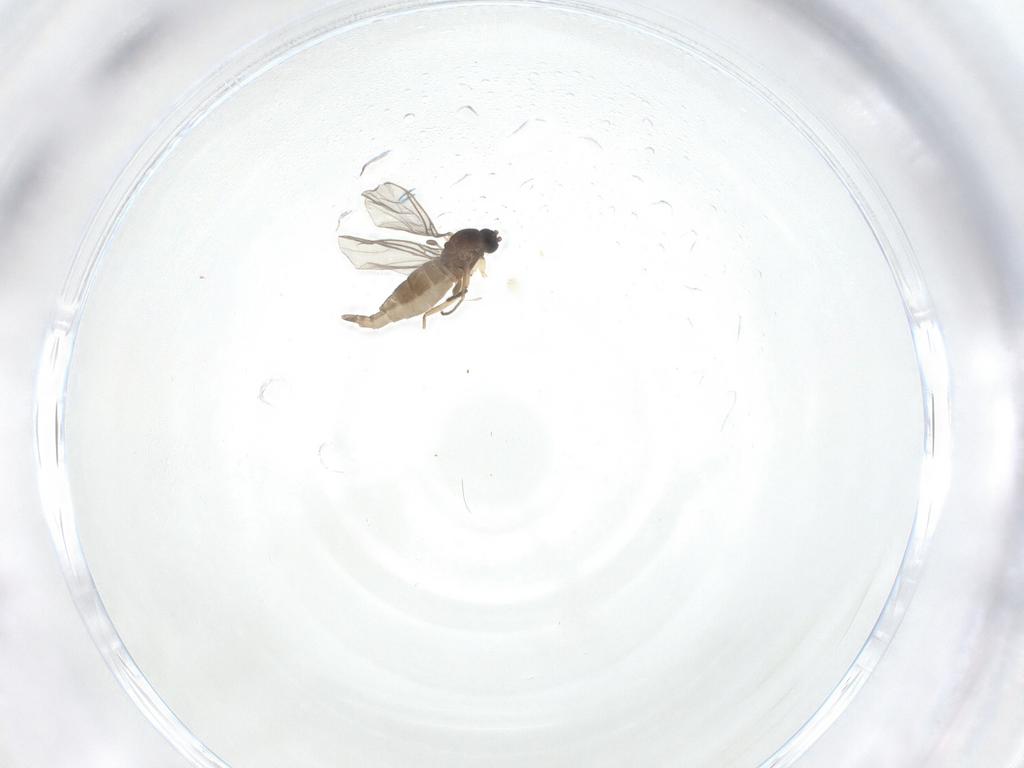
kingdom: Animalia
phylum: Arthropoda
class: Insecta
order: Diptera
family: Sciaridae
